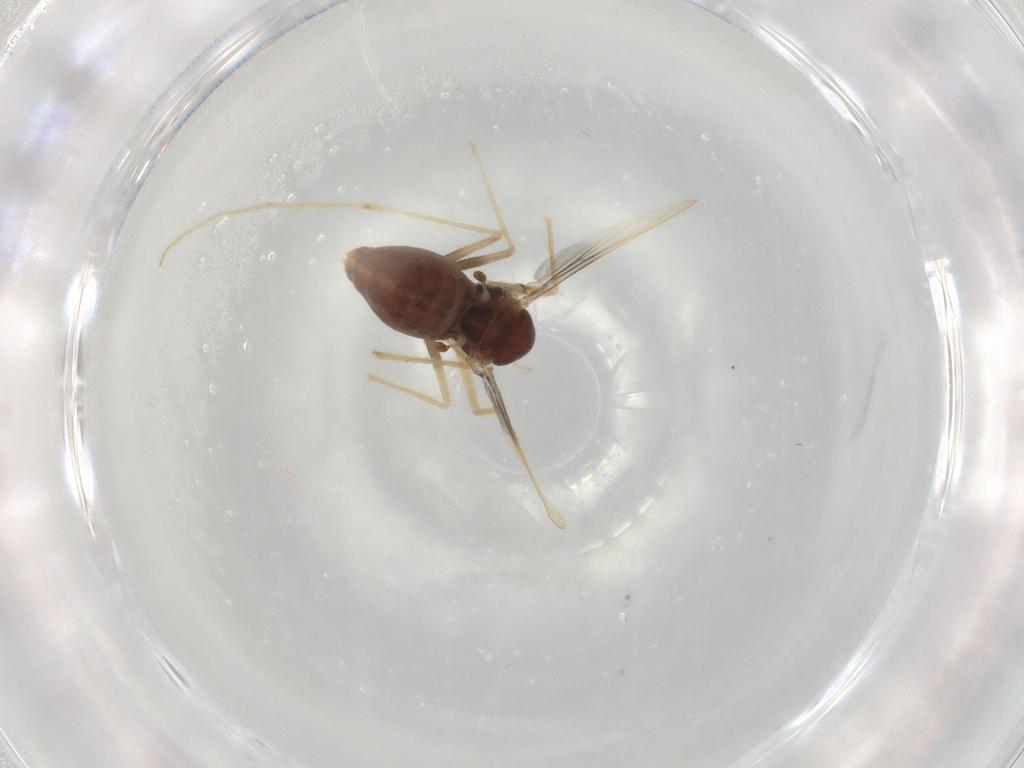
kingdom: Animalia
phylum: Arthropoda
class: Insecta
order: Diptera
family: Chironomidae
